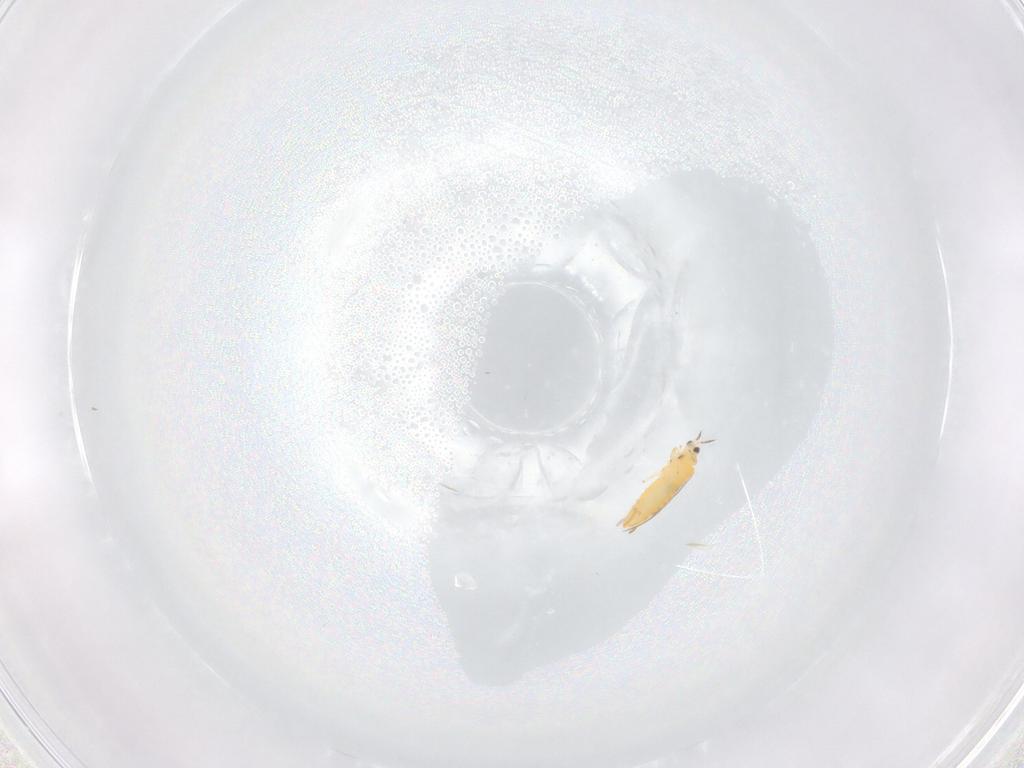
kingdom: Animalia
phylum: Arthropoda
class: Insecta
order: Thysanoptera
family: Thripidae
